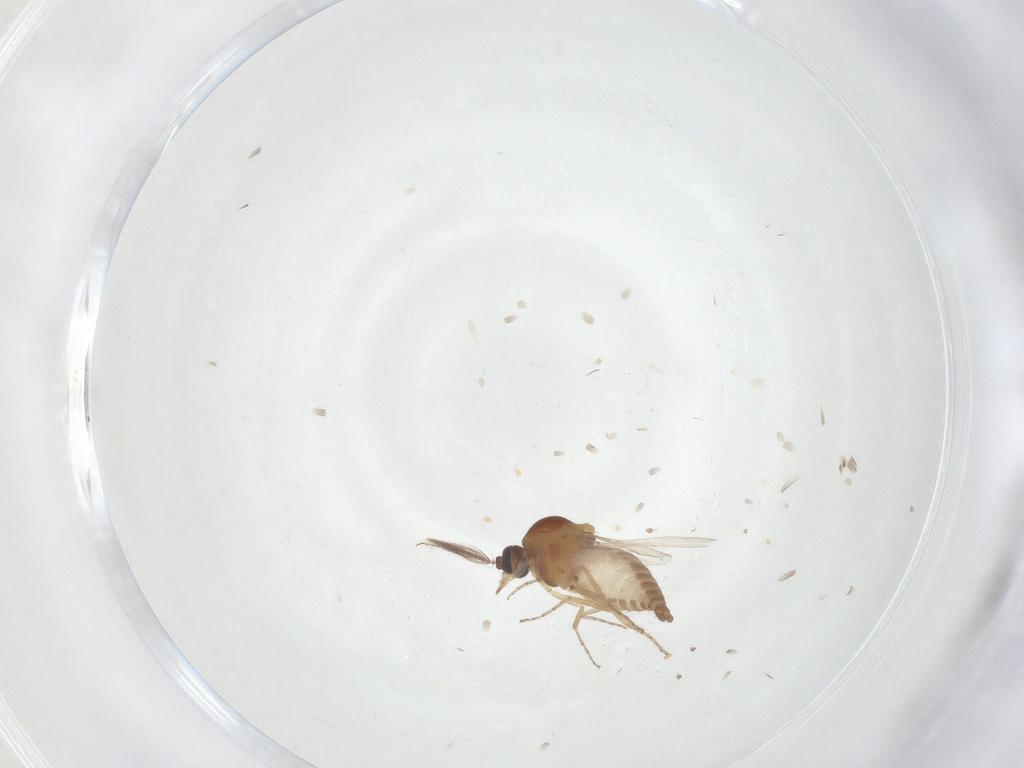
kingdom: Animalia
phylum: Arthropoda
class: Insecta
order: Diptera
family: Ceratopogonidae
